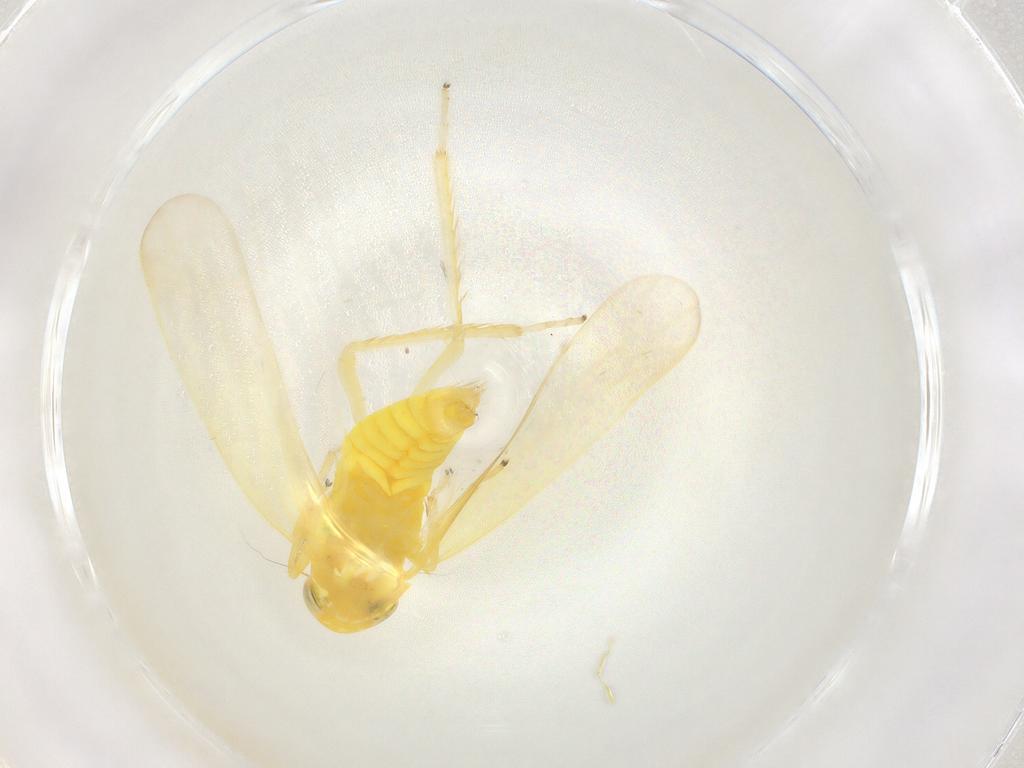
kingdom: Animalia
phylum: Arthropoda
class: Insecta
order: Hemiptera
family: Cicadellidae
